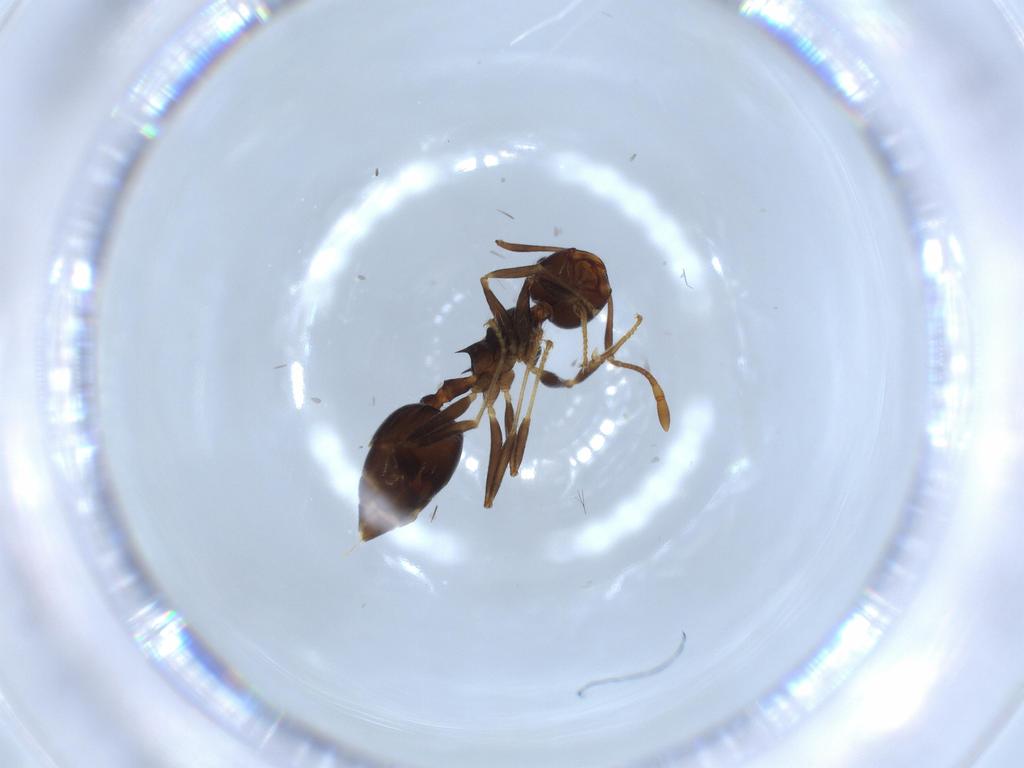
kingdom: Animalia
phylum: Arthropoda
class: Insecta
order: Hymenoptera
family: Formicidae
